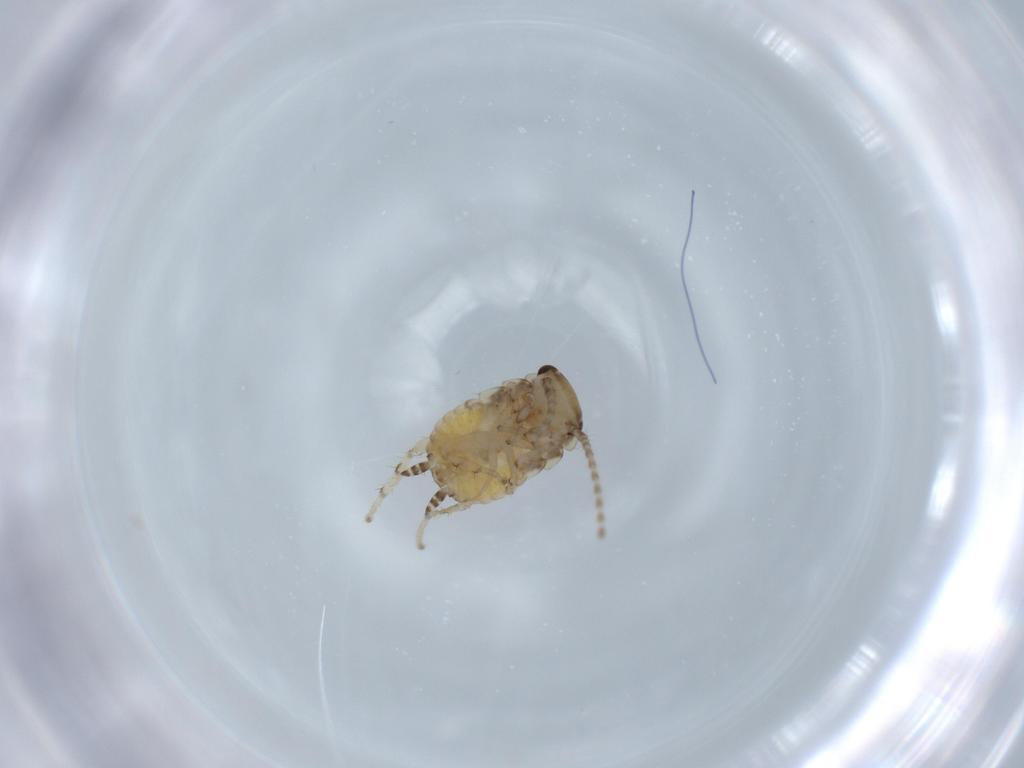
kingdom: Animalia
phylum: Arthropoda
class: Insecta
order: Blattodea
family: Ectobiidae
